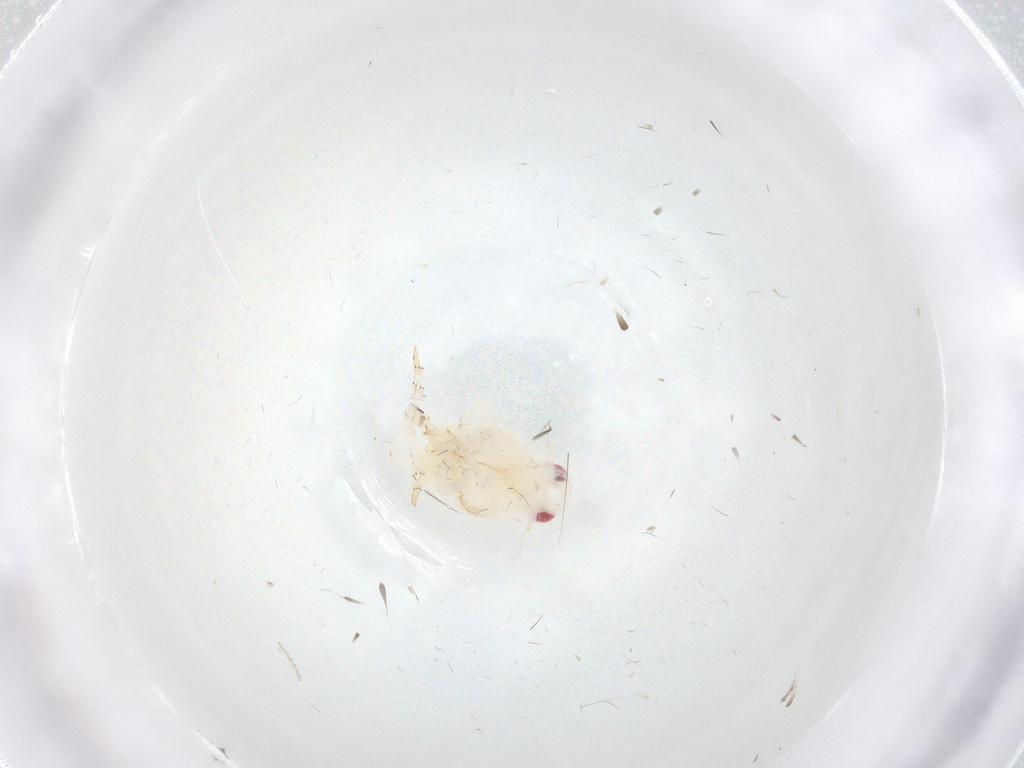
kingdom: Animalia
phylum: Arthropoda
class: Insecta
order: Hemiptera
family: Flatidae
